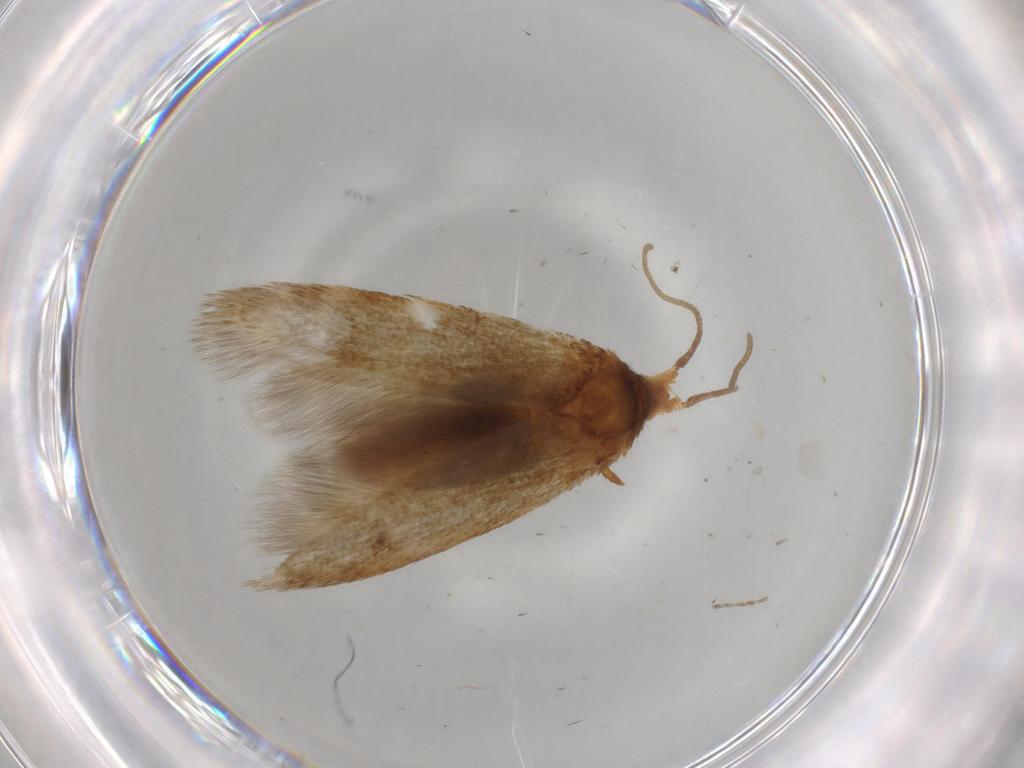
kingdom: Animalia
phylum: Arthropoda
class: Insecta
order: Lepidoptera
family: Blastobasidae
